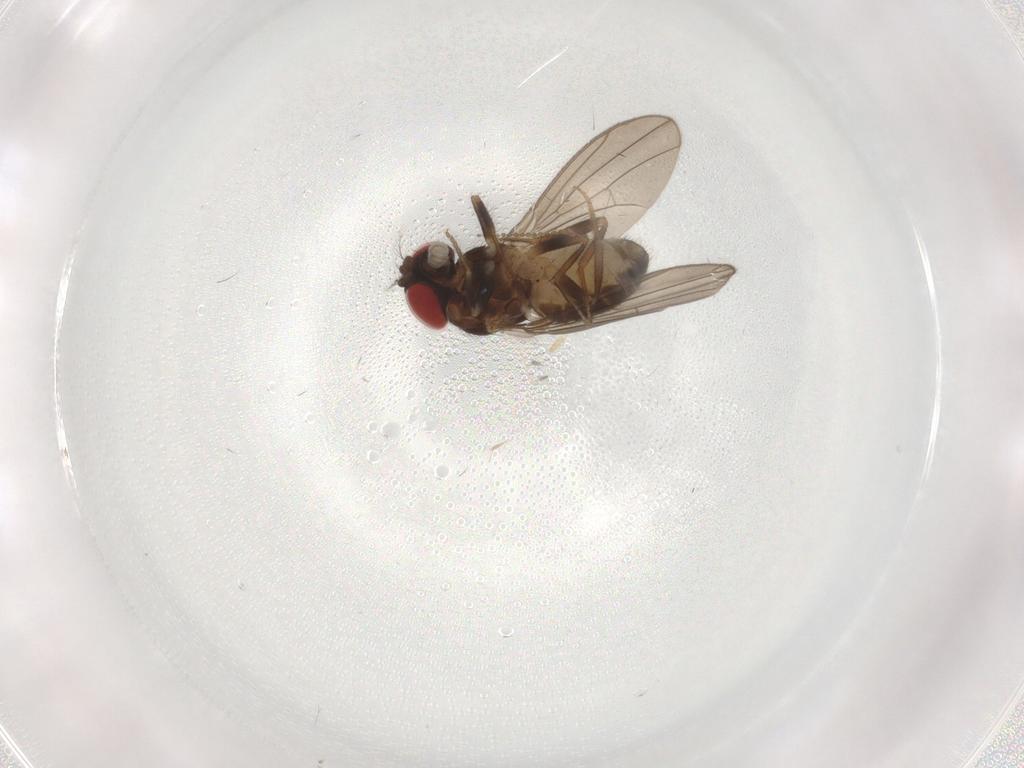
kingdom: Animalia
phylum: Arthropoda
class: Insecta
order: Diptera
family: Drosophilidae
